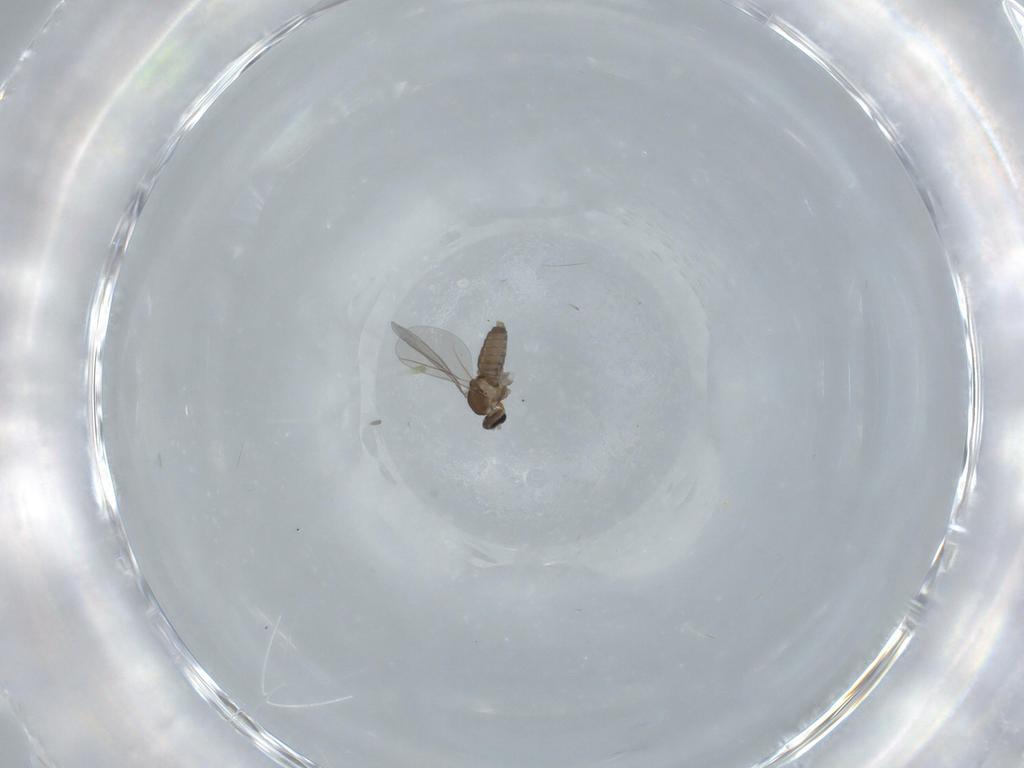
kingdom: Animalia
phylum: Arthropoda
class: Insecta
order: Diptera
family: Cecidomyiidae
